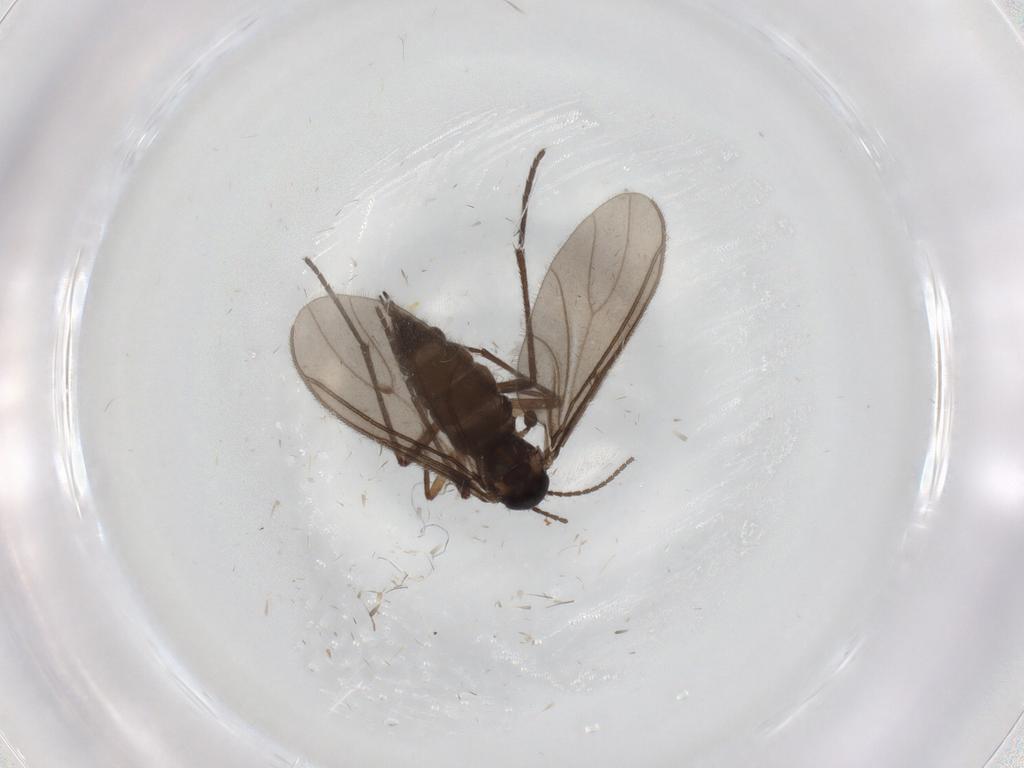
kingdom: Animalia
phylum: Arthropoda
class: Insecta
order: Diptera
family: Sciaridae
